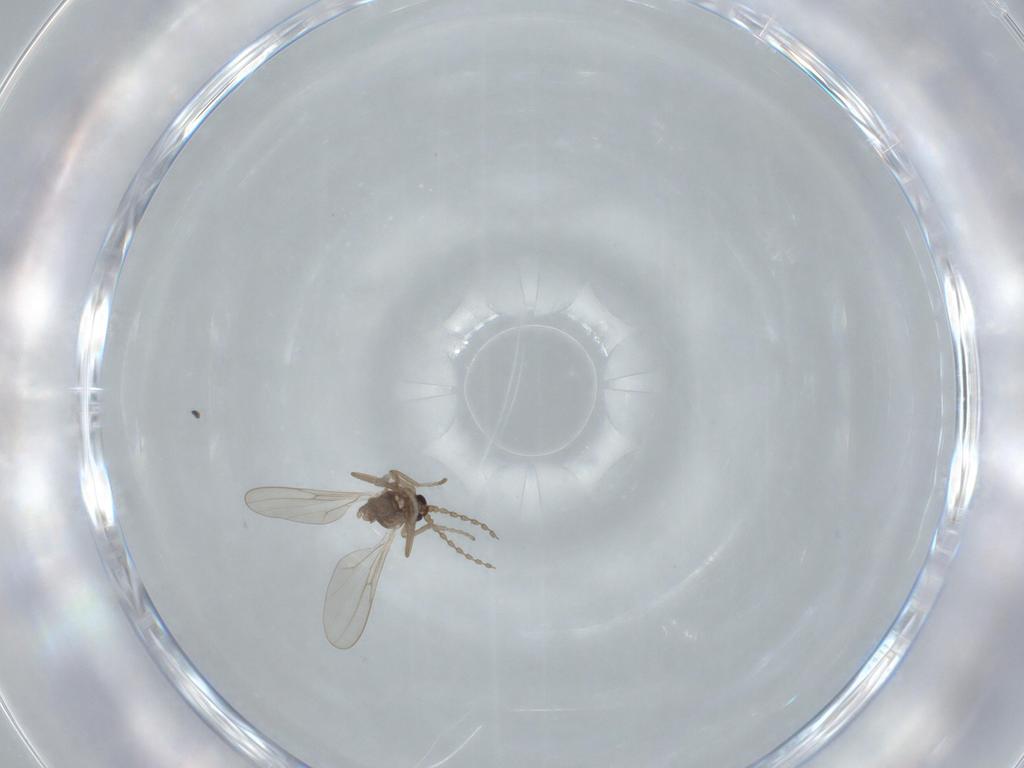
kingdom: Animalia
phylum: Arthropoda
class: Insecta
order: Diptera
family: Cecidomyiidae
